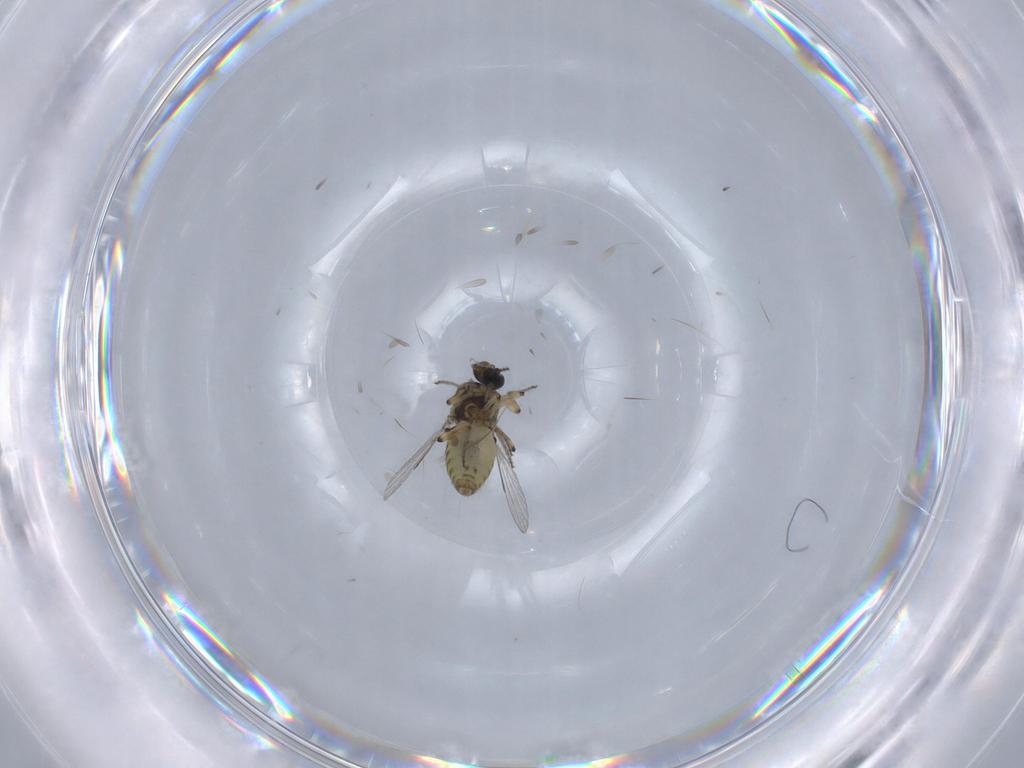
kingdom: Animalia
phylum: Arthropoda
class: Insecta
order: Diptera
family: Cecidomyiidae
